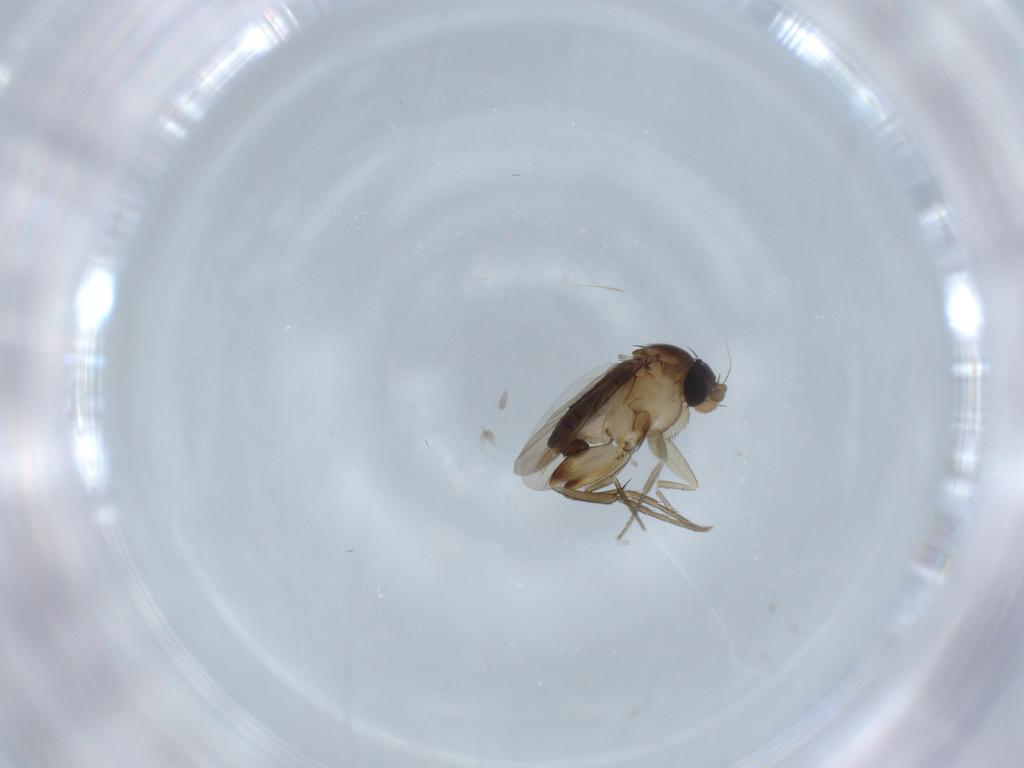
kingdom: Animalia
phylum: Arthropoda
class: Insecta
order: Diptera
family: Phoridae
